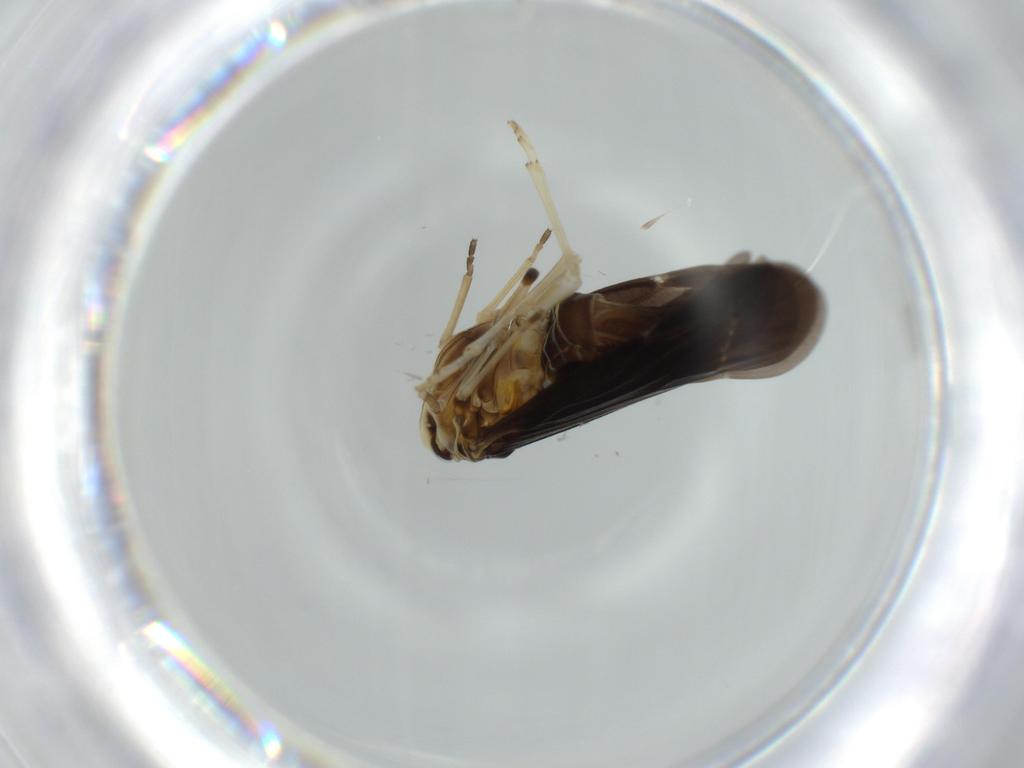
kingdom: Animalia
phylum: Arthropoda
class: Insecta
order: Hemiptera
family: Derbidae
